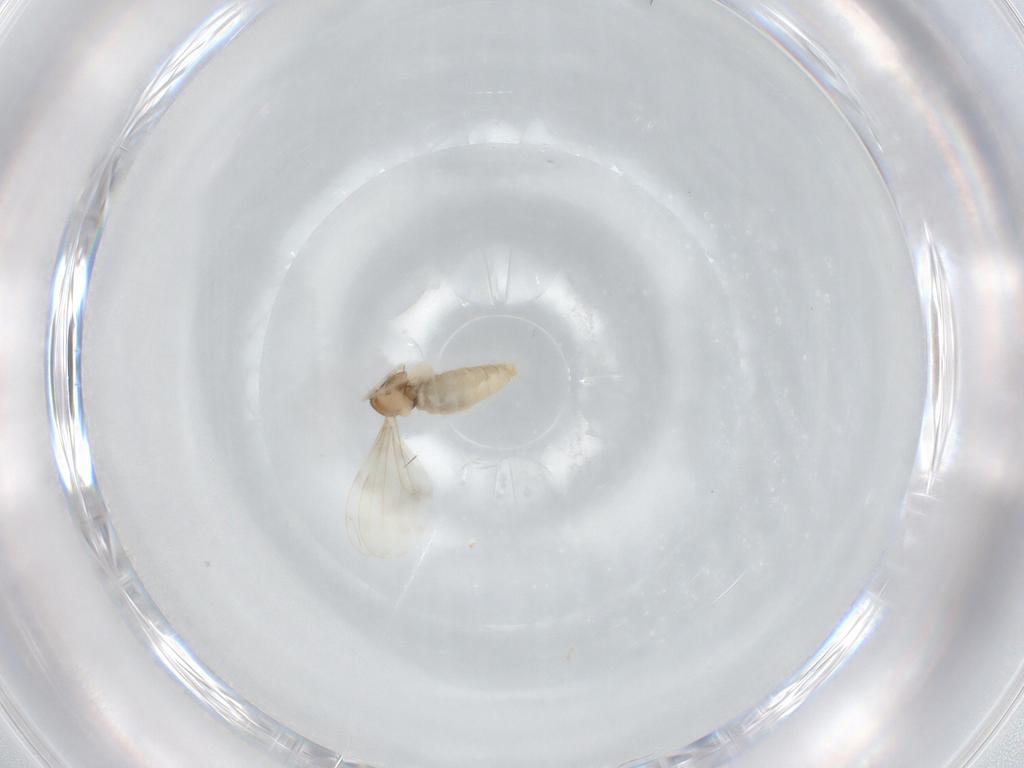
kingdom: Animalia
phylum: Arthropoda
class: Insecta
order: Diptera
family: Cecidomyiidae
